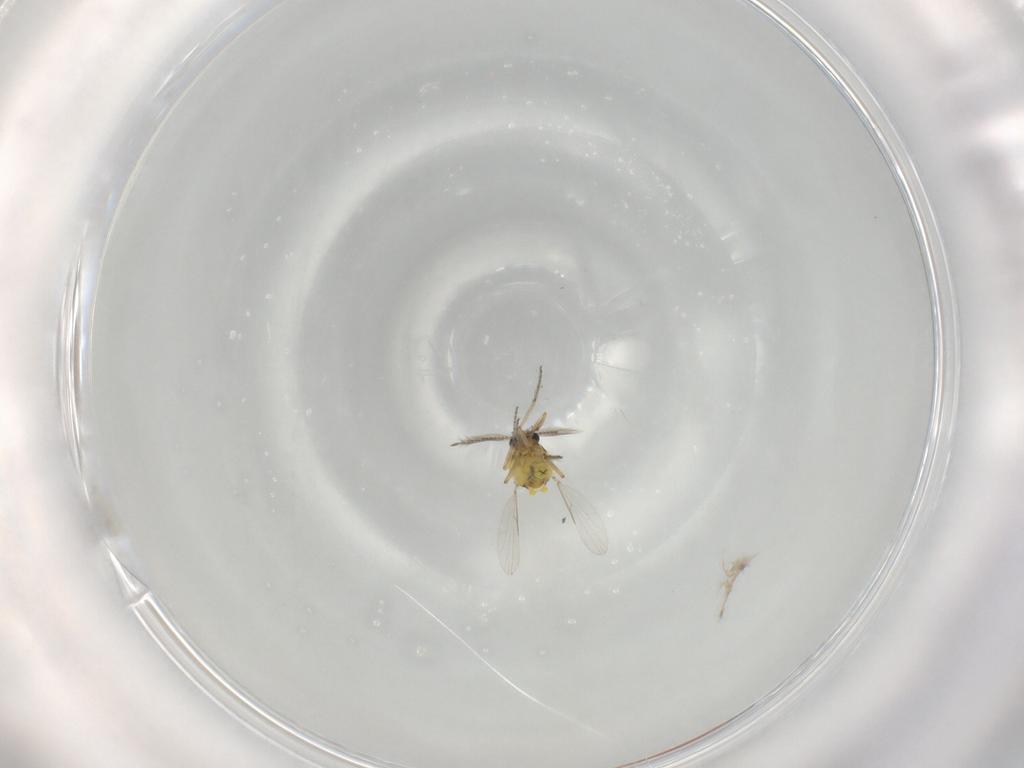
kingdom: Animalia
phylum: Arthropoda
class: Insecta
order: Diptera
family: Ceratopogonidae
